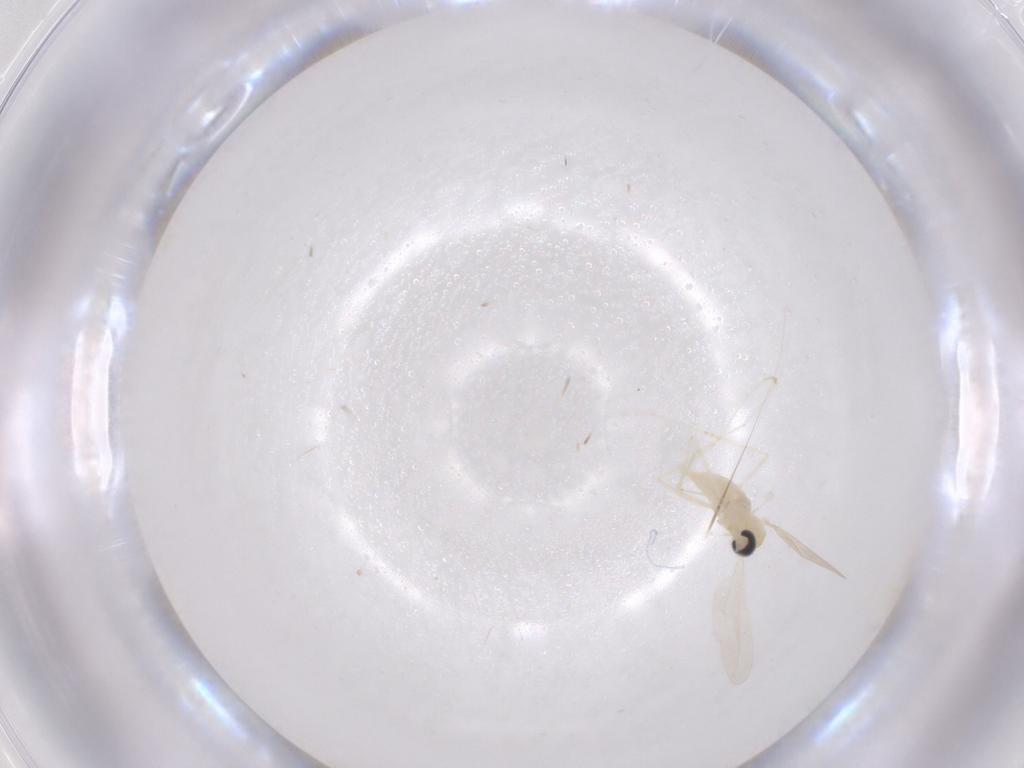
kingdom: Animalia
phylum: Arthropoda
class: Insecta
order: Diptera
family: Cecidomyiidae
